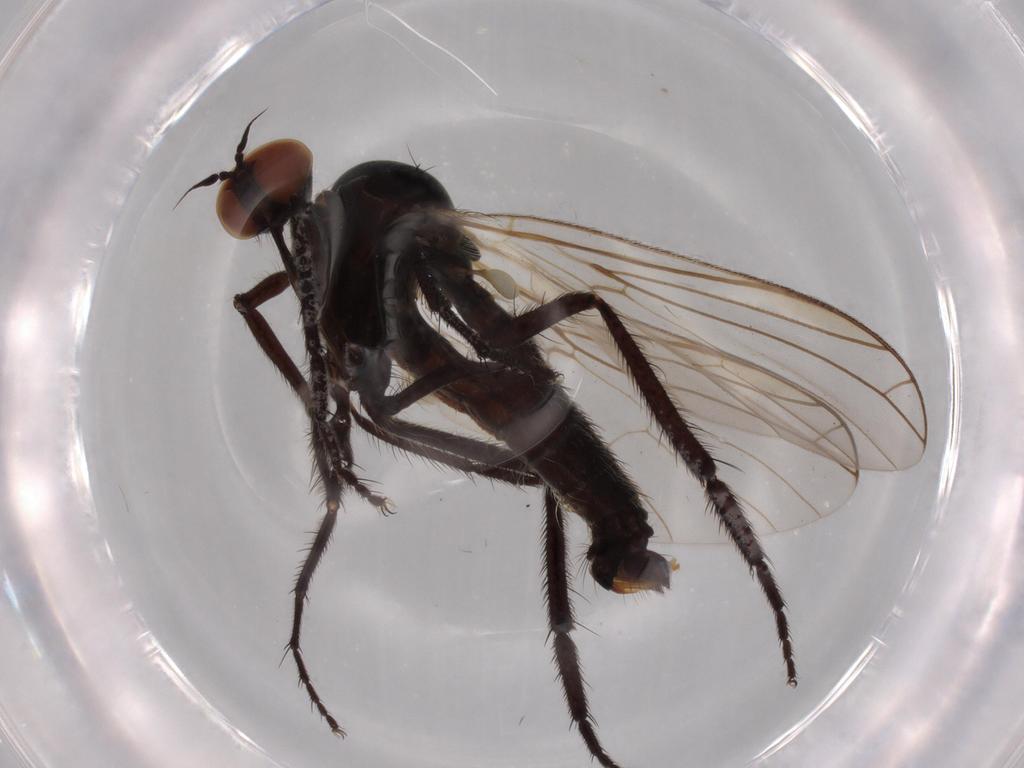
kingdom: Animalia
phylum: Arthropoda
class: Insecta
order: Diptera
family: Empididae
